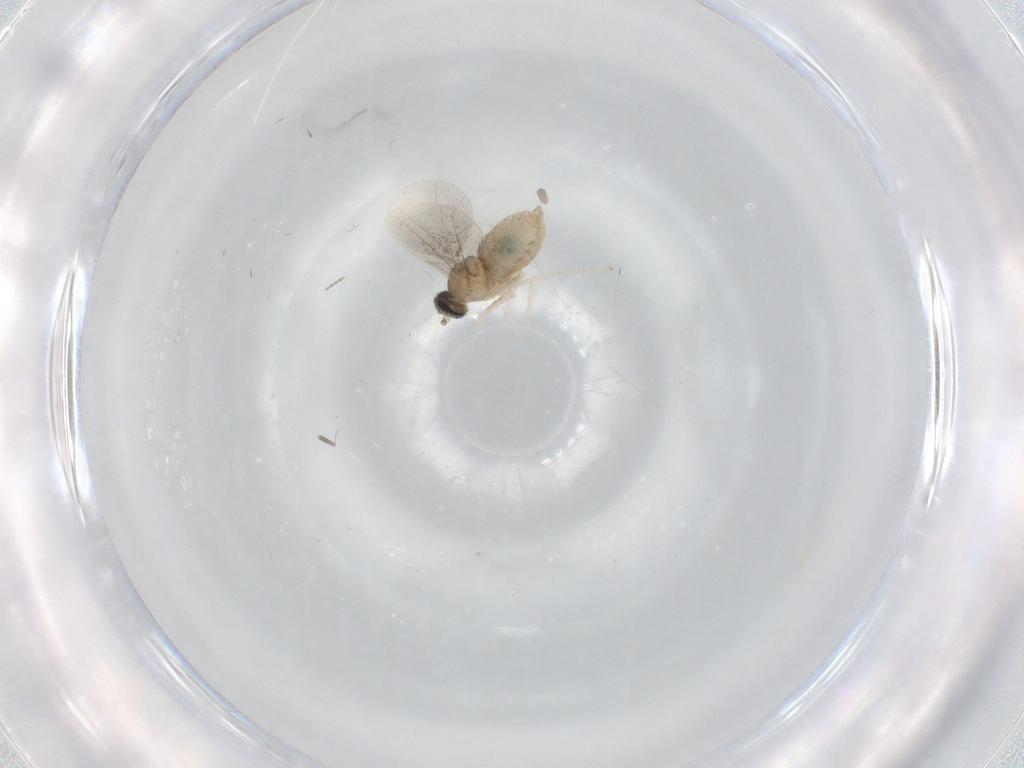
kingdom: Animalia
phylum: Arthropoda
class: Insecta
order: Diptera
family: Cecidomyiidae
